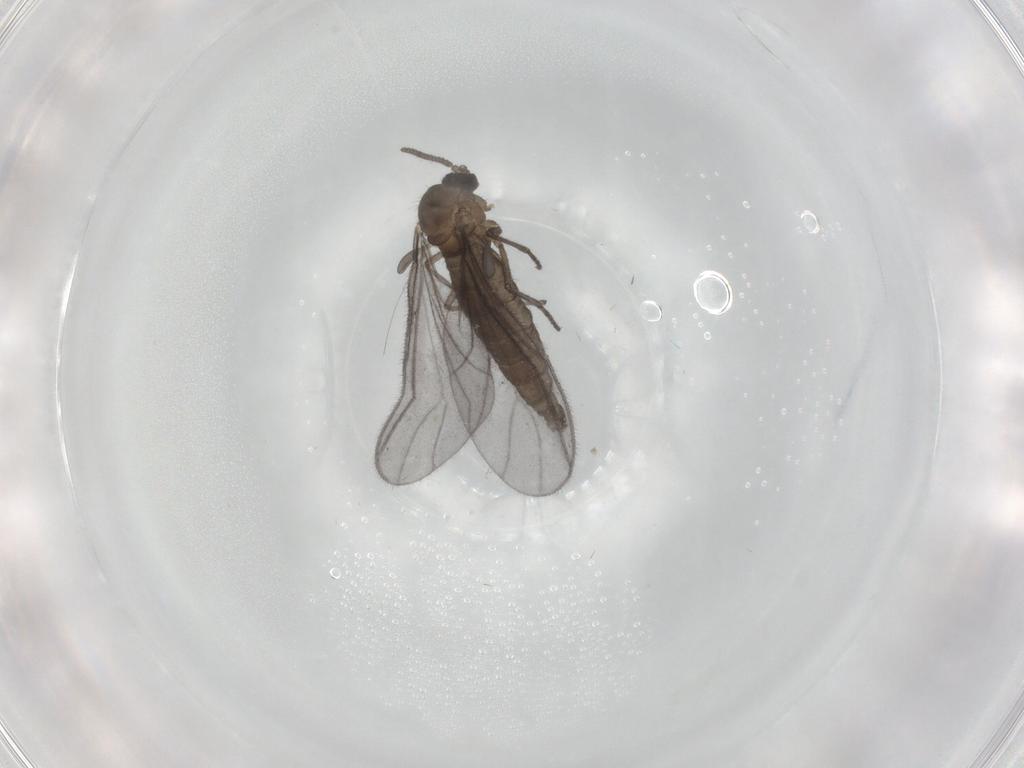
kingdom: Animalia
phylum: Arthropoda
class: Insecta
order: Diptera
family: Sciaridae
